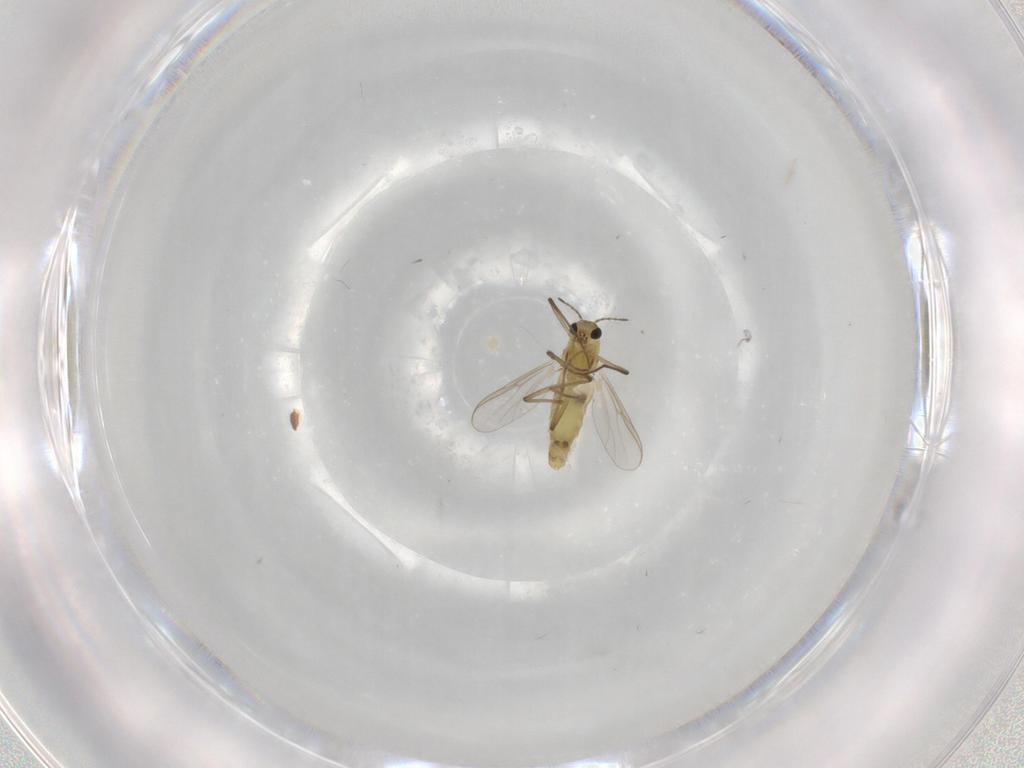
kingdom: Animalia
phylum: Arthropoda
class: Insecta
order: Diptera
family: Chironomidae
